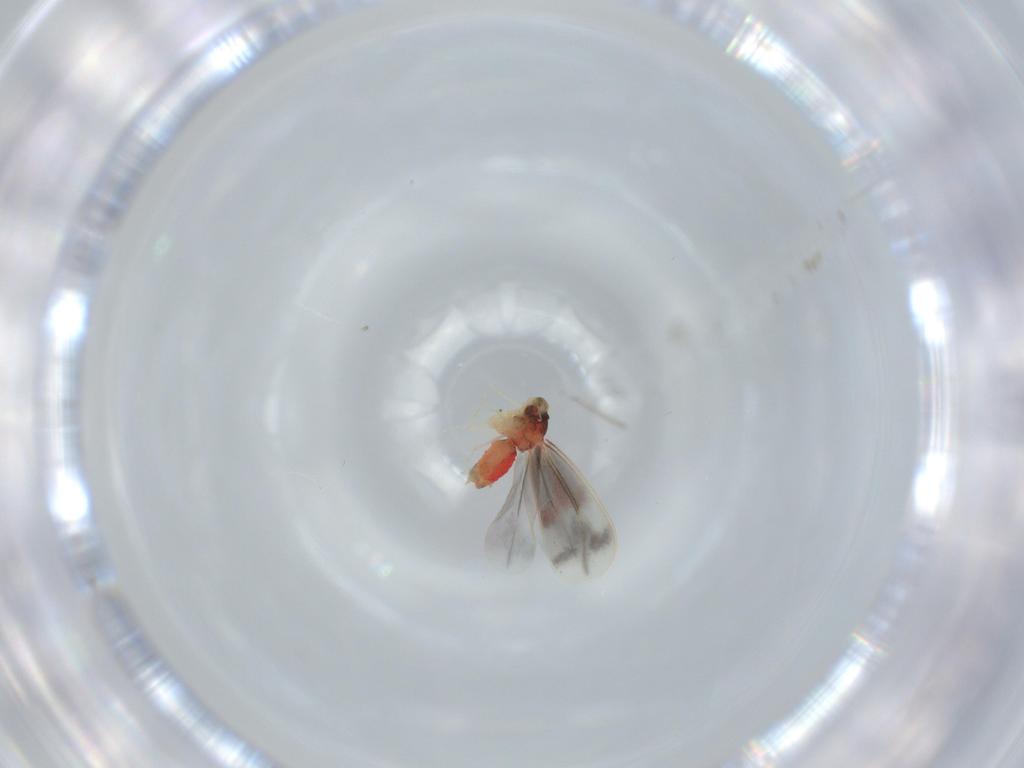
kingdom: Animalia
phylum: Arthropoda
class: Insecta
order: Hemiptera
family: Aleyrodidae
